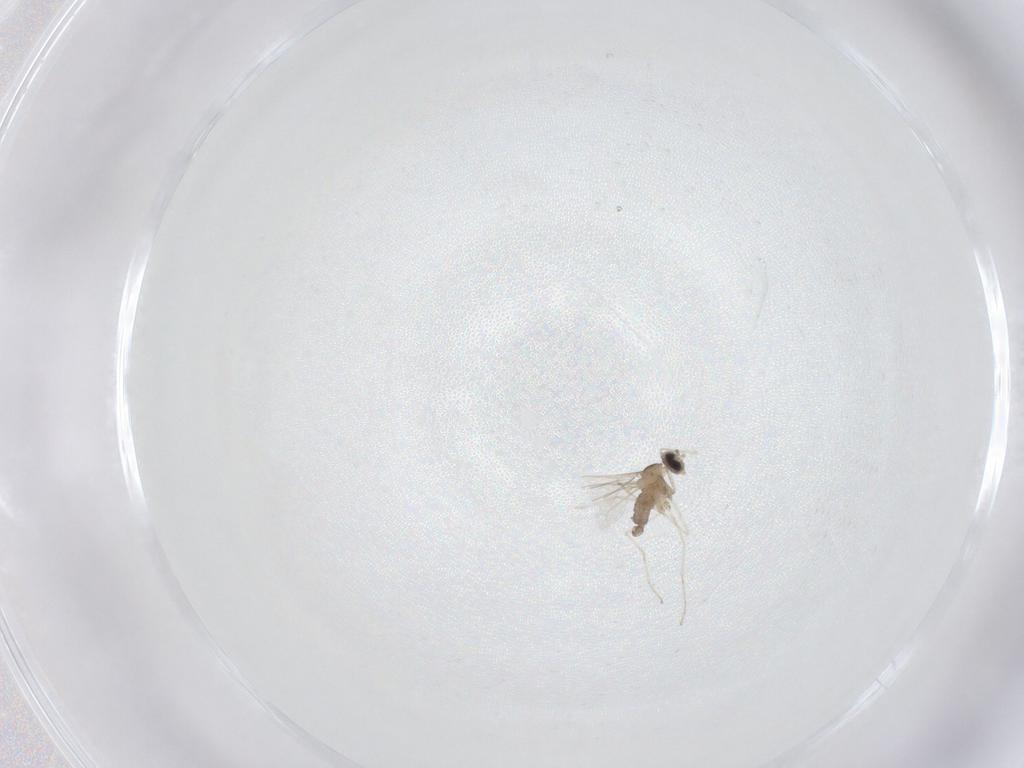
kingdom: Animalia
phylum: Arthropoda
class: Insecta
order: Diptera
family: Cecidomyiidae
